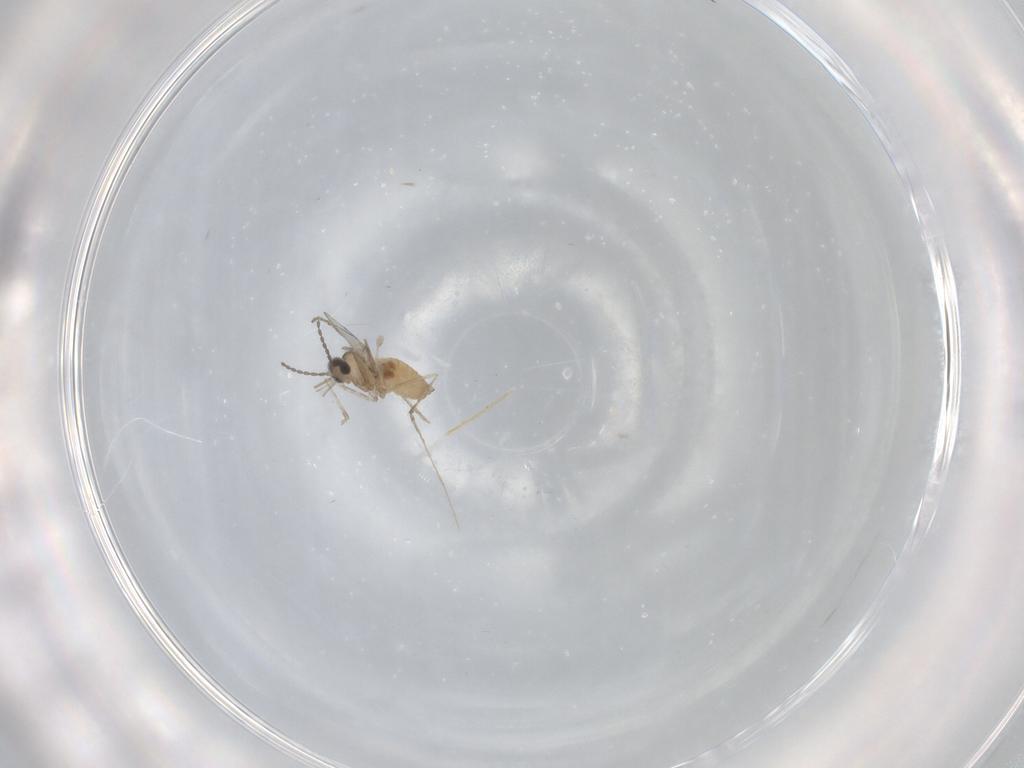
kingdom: Animalia
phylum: Arthropoda
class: Insecta
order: Diptera
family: Cecidomyiidae
